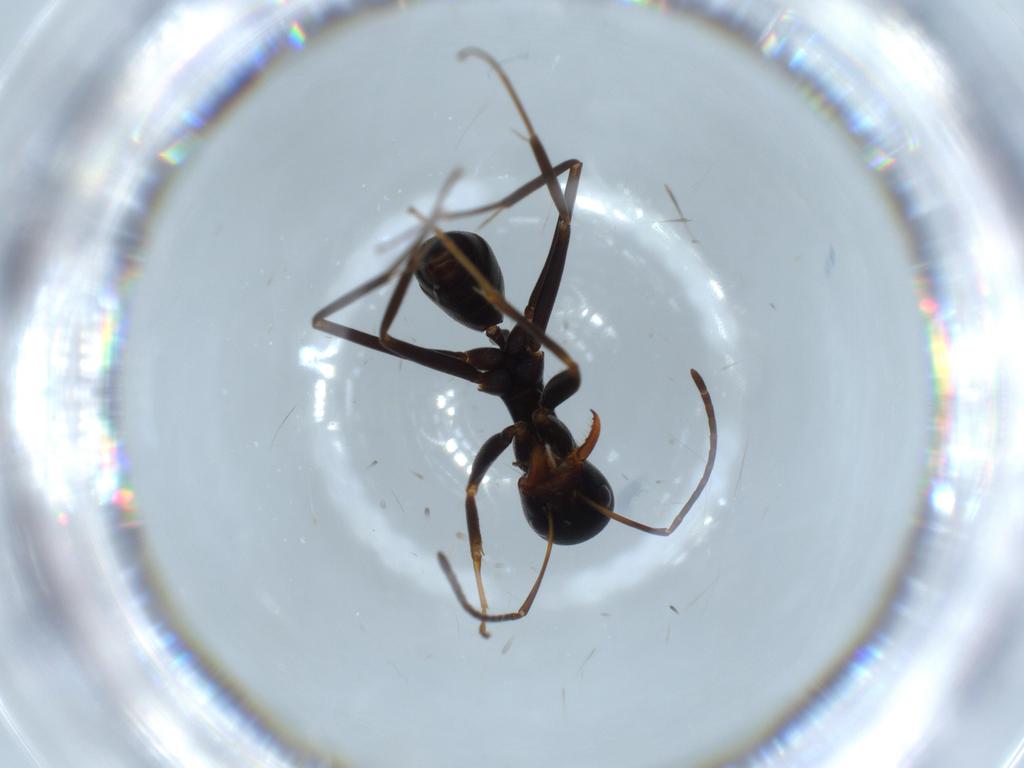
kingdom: Animalia
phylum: Arthropoda
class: Insecta
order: Hymenoptera
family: Formicidae
